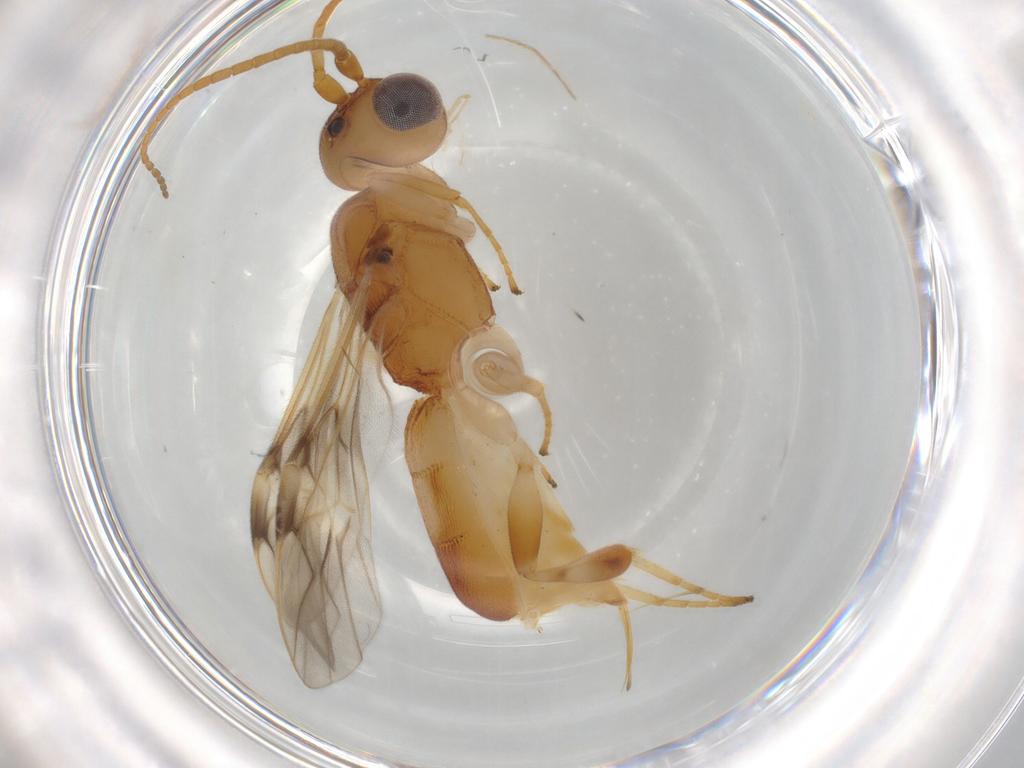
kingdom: Animalia
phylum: Arthropoda
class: Insecta
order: Hymenoptera
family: Braconidae
